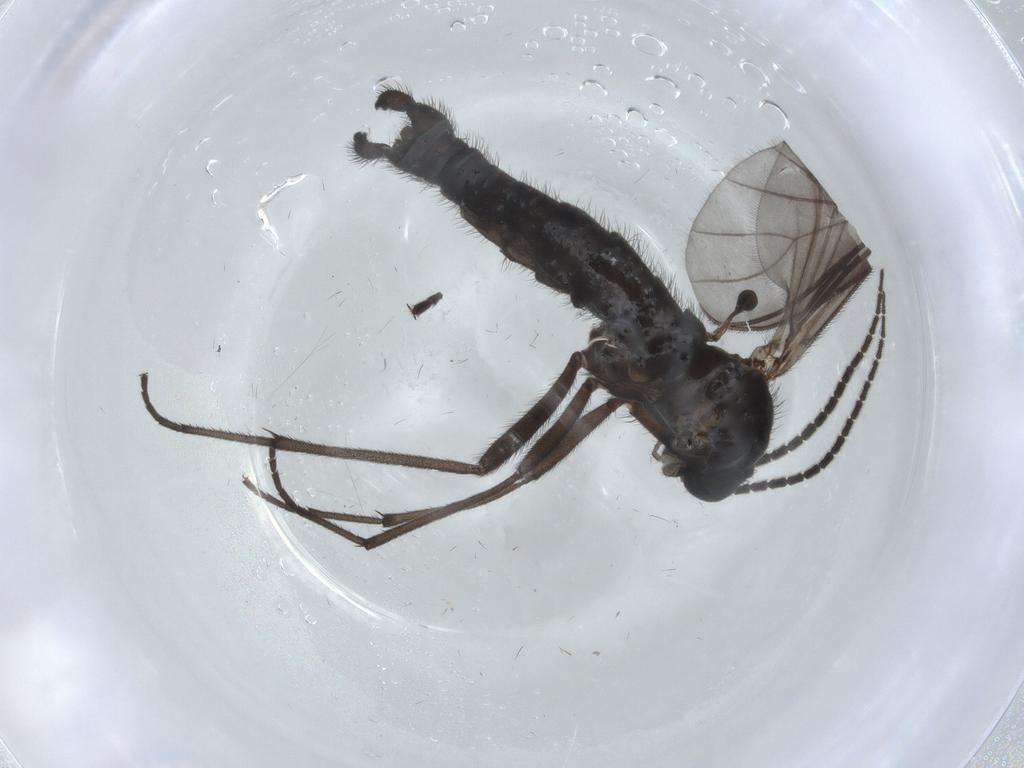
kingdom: Animalia
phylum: Arthropoda
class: Insecta
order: Diptera
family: Sciaridae
